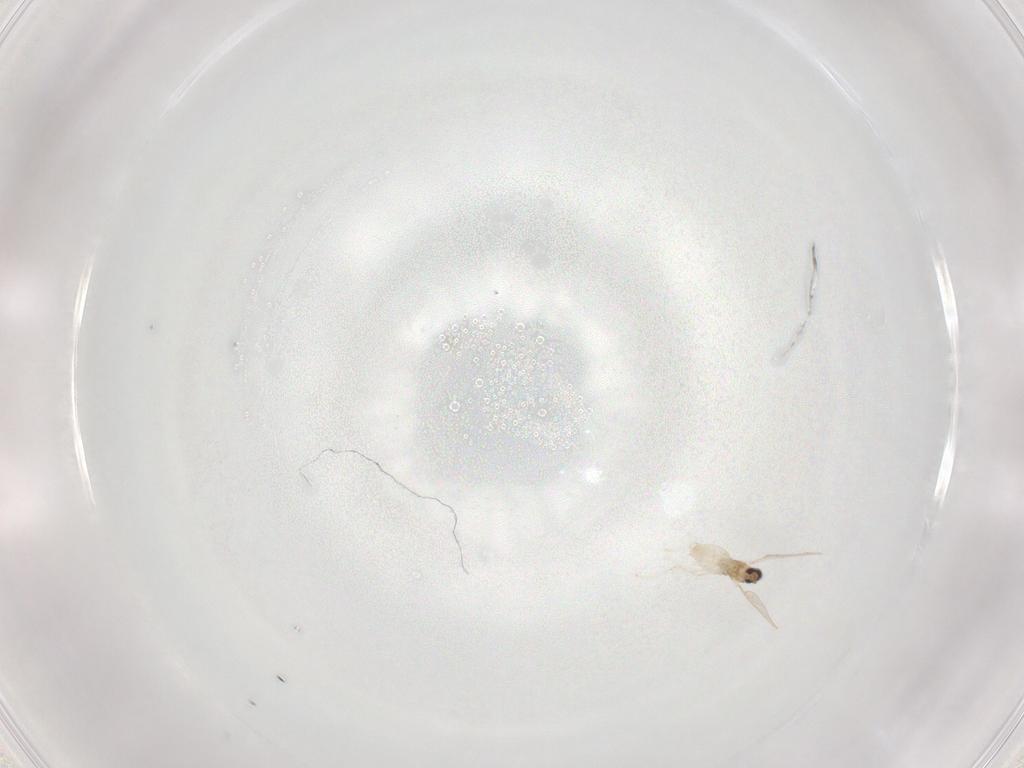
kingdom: Animalia
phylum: Arthropoda
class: Insecta
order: Diptera
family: Cecidomyiidae
